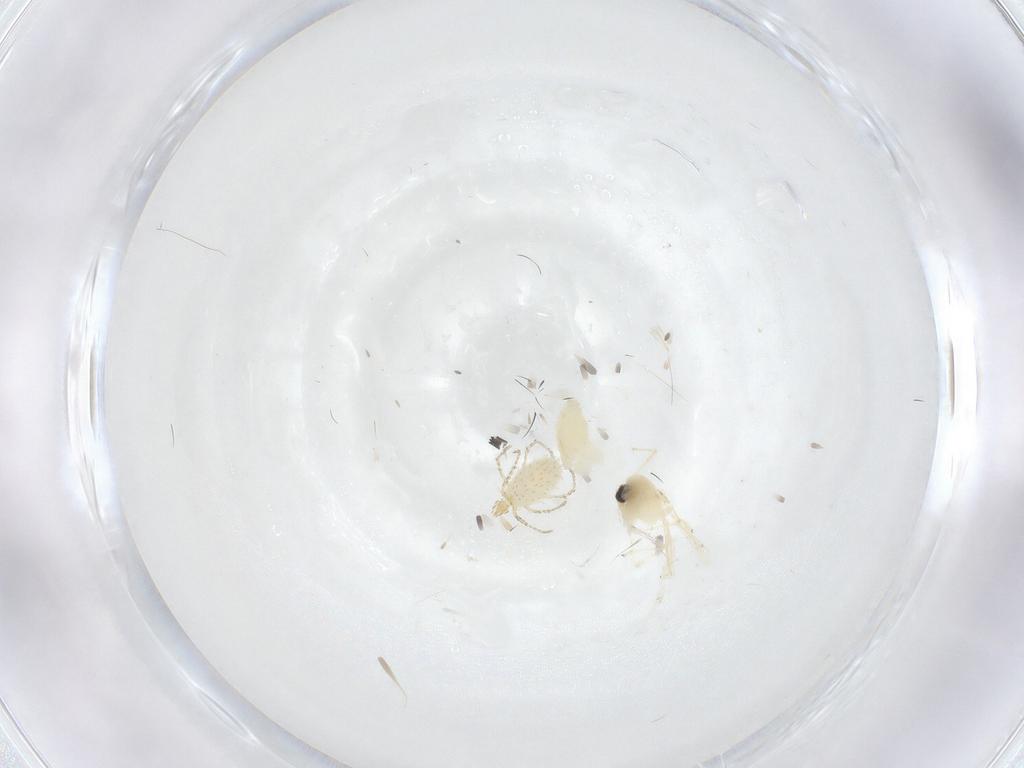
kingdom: Animalia
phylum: Arthropoda
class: Insecta
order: Diptera
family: Chironomidae
